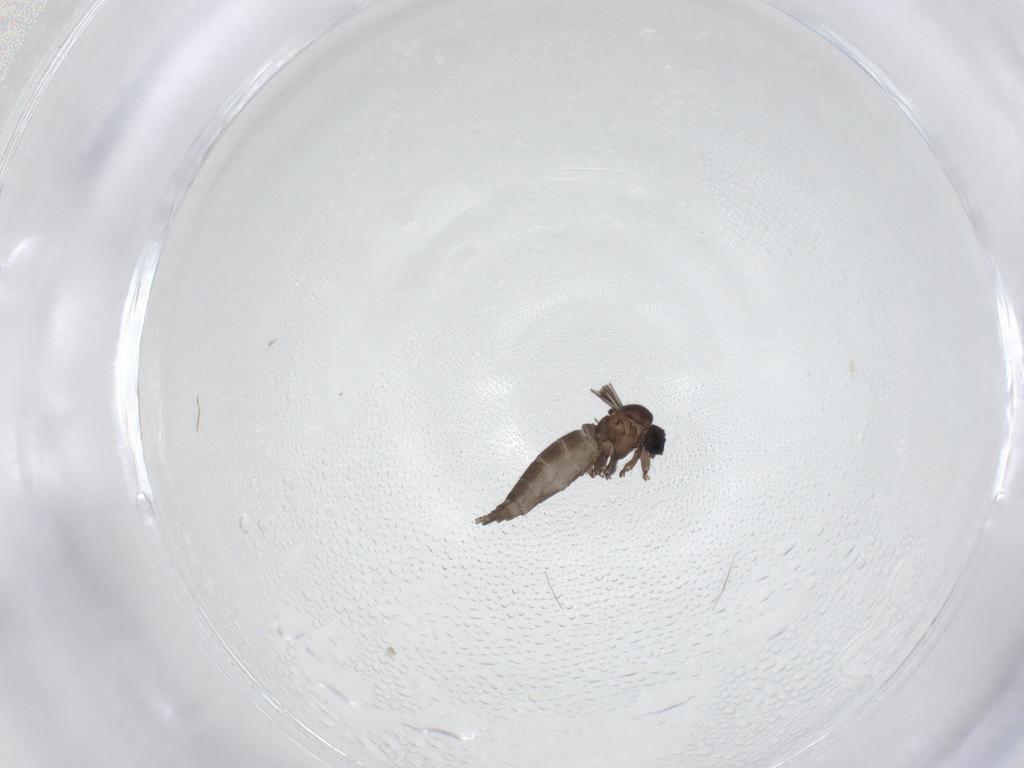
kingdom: Animalia
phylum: Arthropoda
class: Insecta
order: Diptera
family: Sciaridae
